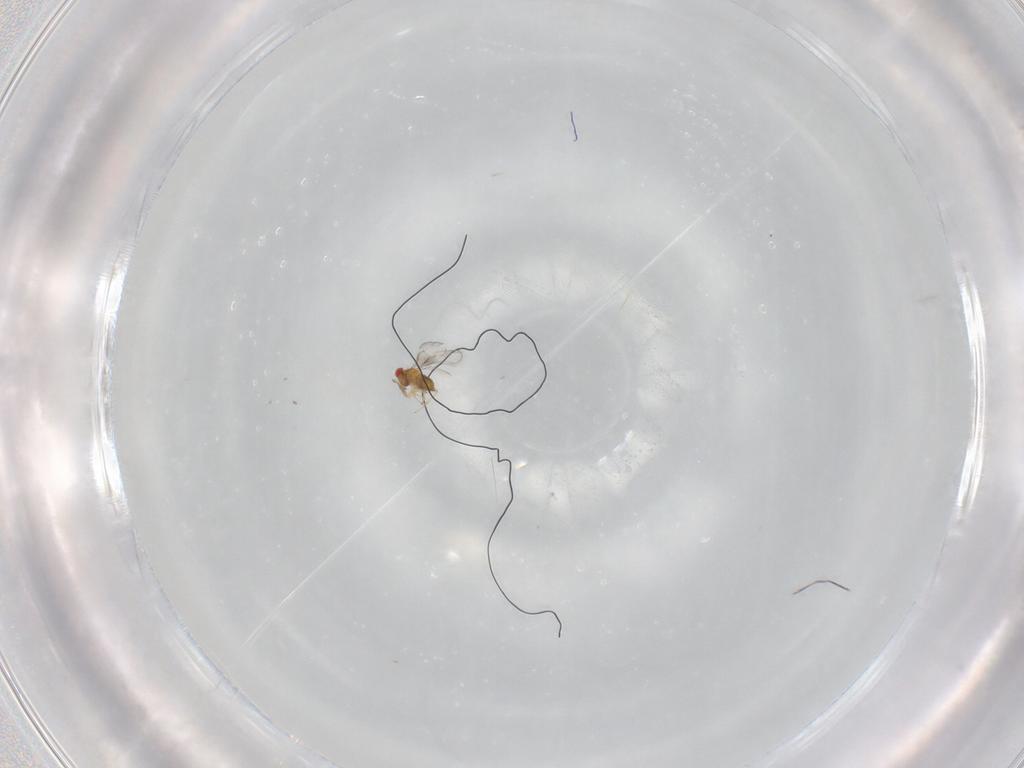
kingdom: Animalia
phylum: Arthropoda
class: Insecta
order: Hymenoptera
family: Trichogrammatidae
